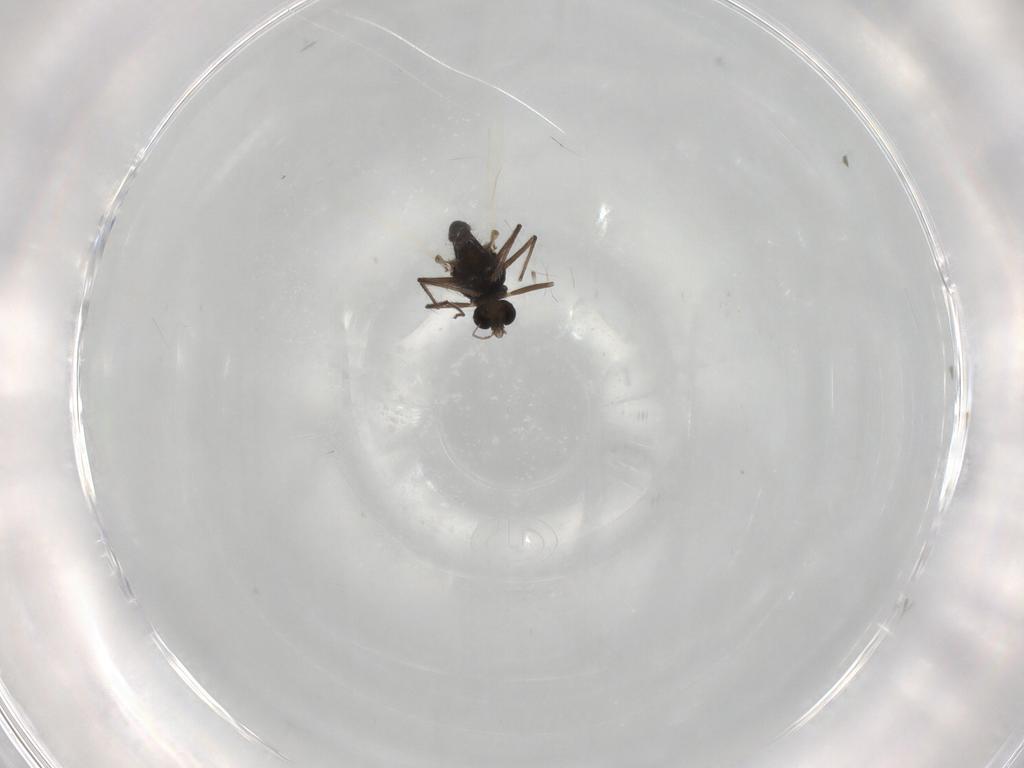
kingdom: Animalia
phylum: Arthropoda
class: Insecta
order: Diptera
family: Chironomidae
